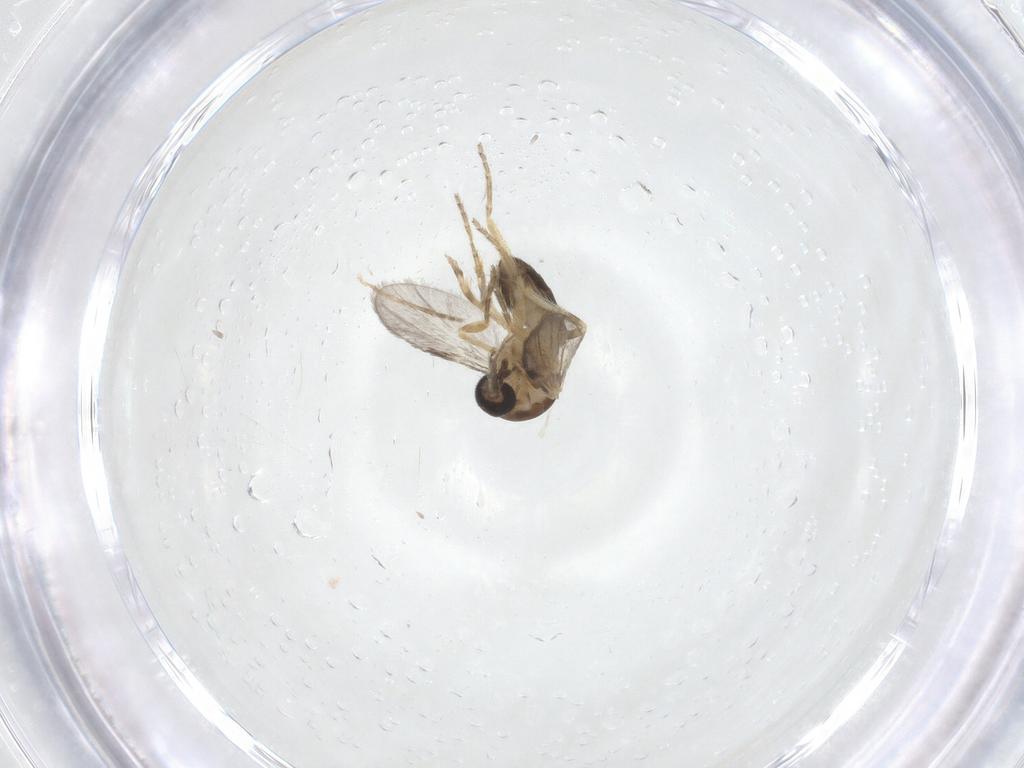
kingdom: Animalia
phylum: Arthropoda
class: Insecta
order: Diptera
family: Ceratopogonidae
